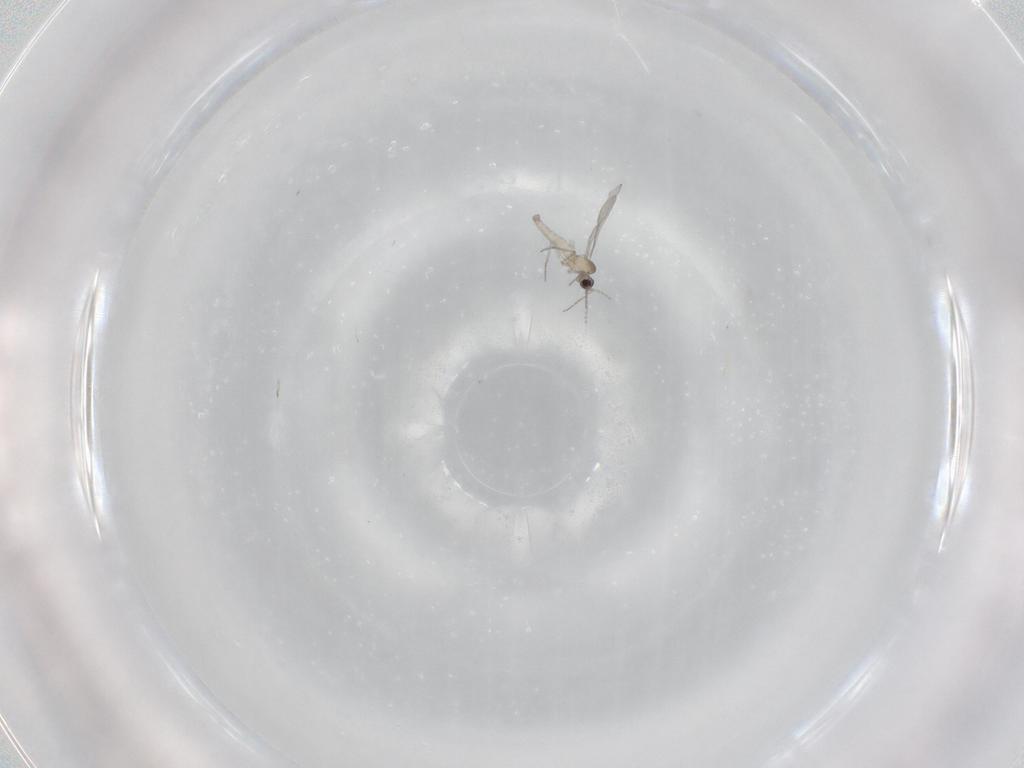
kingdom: Animalia
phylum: Arthropoda
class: Insecta
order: Diptera
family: Cecidomyiidae
